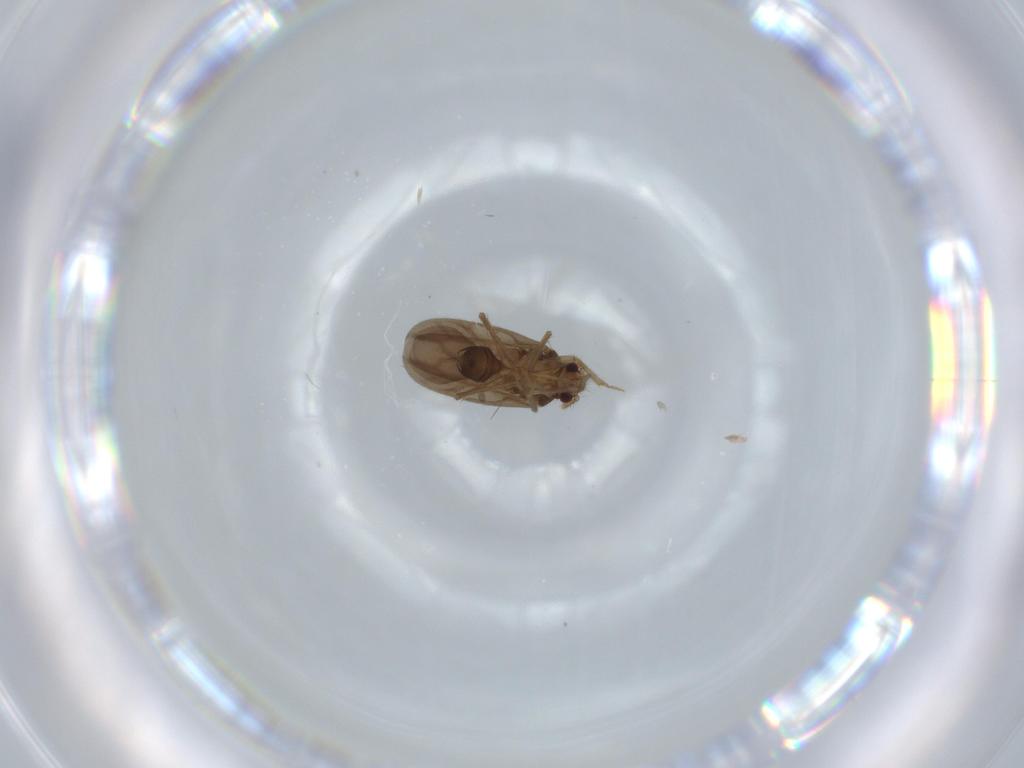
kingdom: Animalia
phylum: Arthropoda
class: Insecta
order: Hemiptera
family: Ceratocombidae
